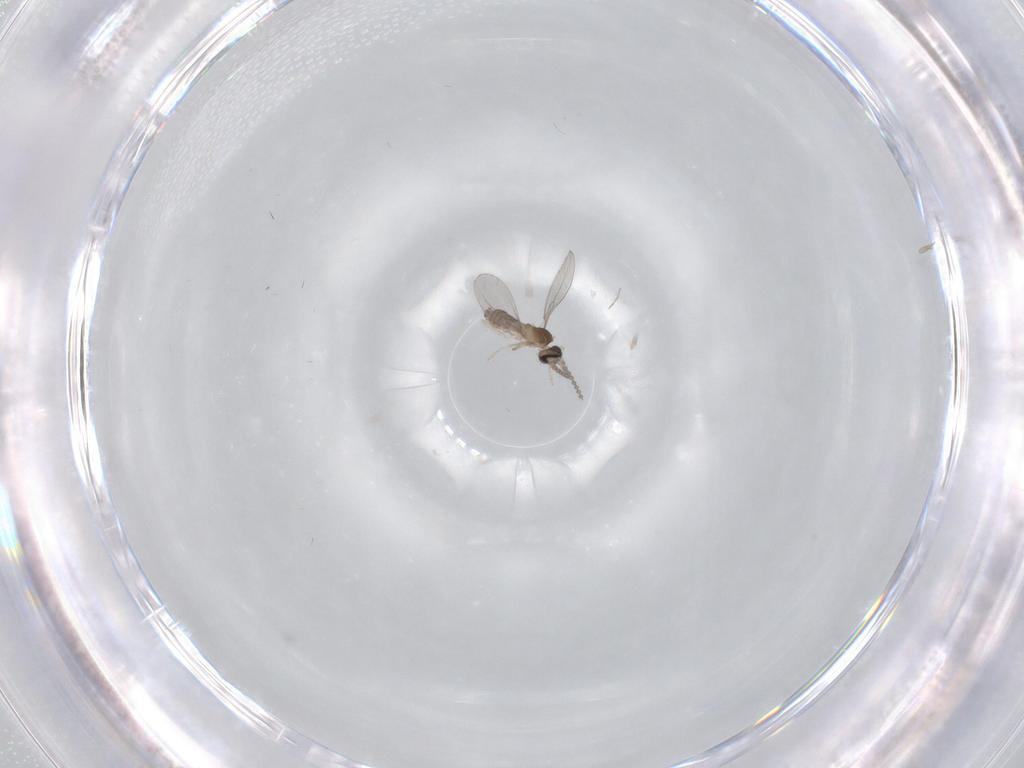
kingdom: Animalia
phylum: Arthropoda
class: Insecta
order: Diptera
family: Cecidomyiidae
